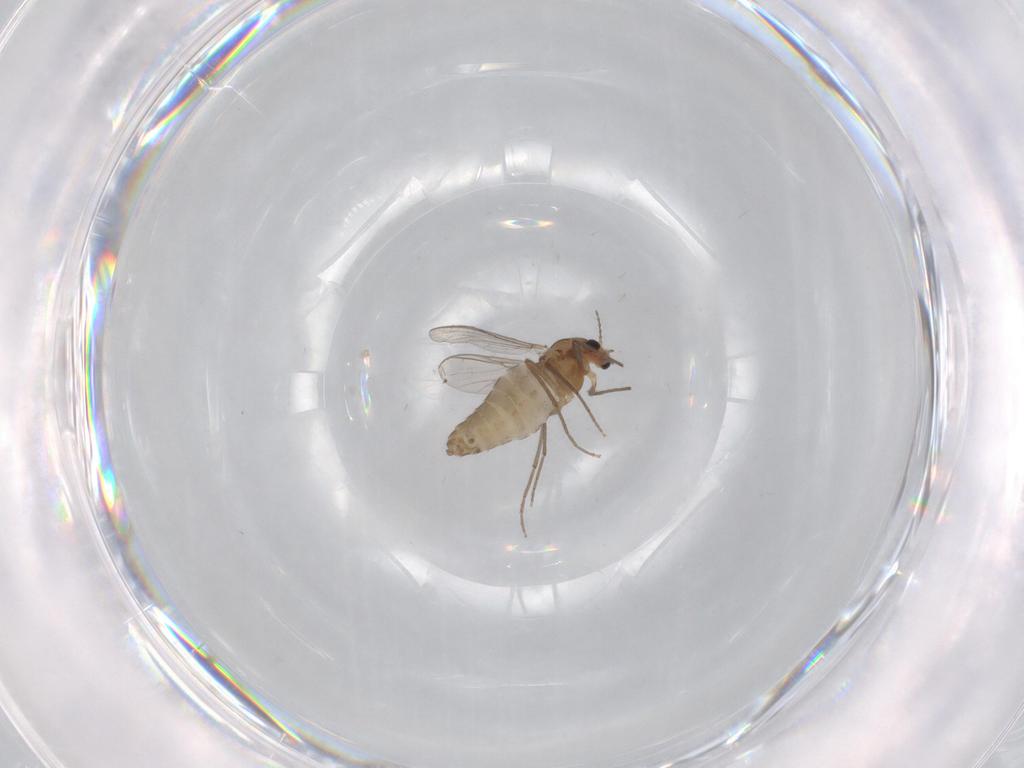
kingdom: Animalia
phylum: Arthropoda
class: Insecta
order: Diptera
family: Chironomidae
